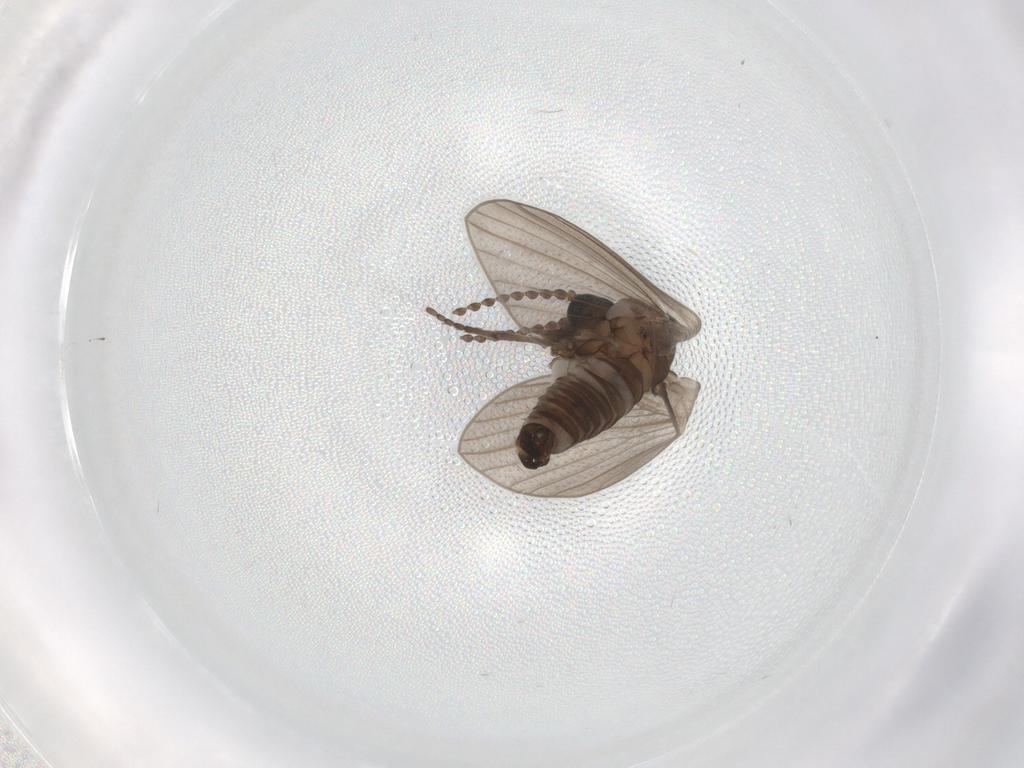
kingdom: Animalia
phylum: Arthropoda
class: Insecta
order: Diptera
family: Psychodidae
